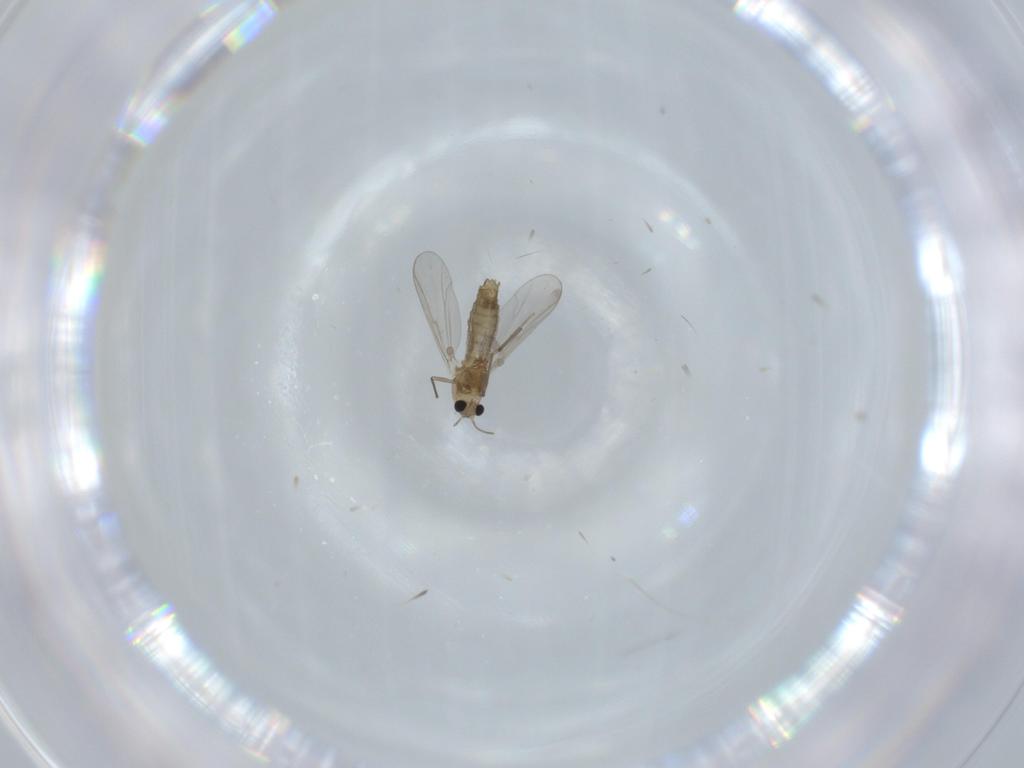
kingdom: Animalia
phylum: Arthropoda
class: Insecta
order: Diptera
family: Chironomidae
